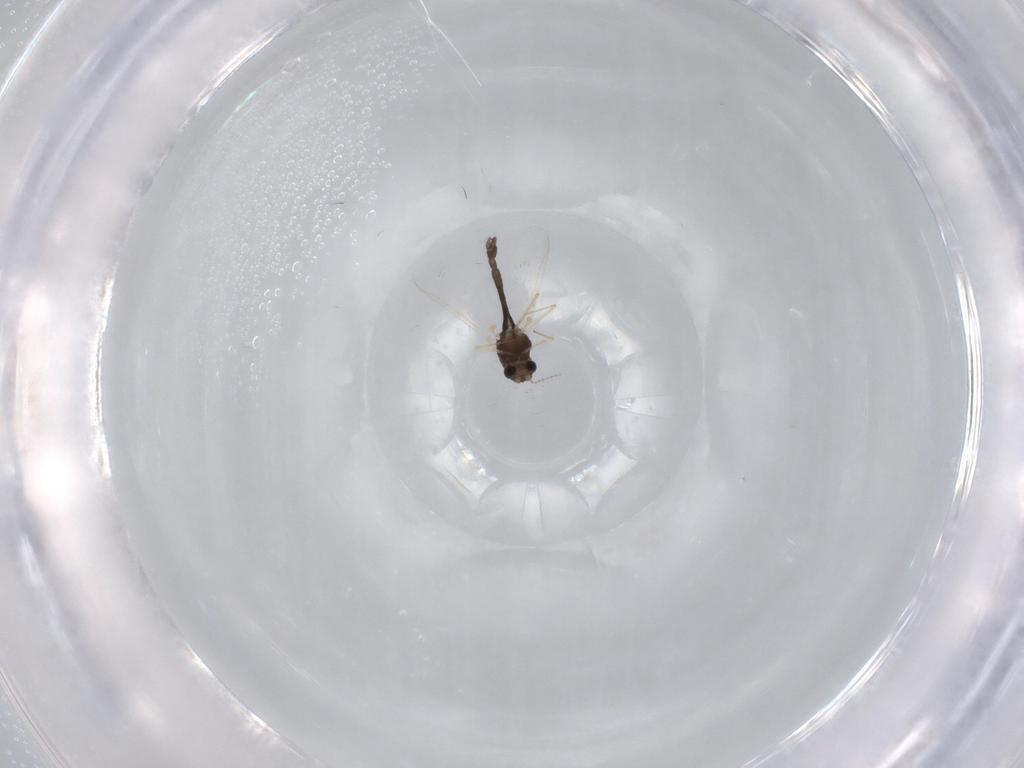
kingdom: Animalia
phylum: Arthropoda
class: Insecta
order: Diptera
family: Chironomidae
